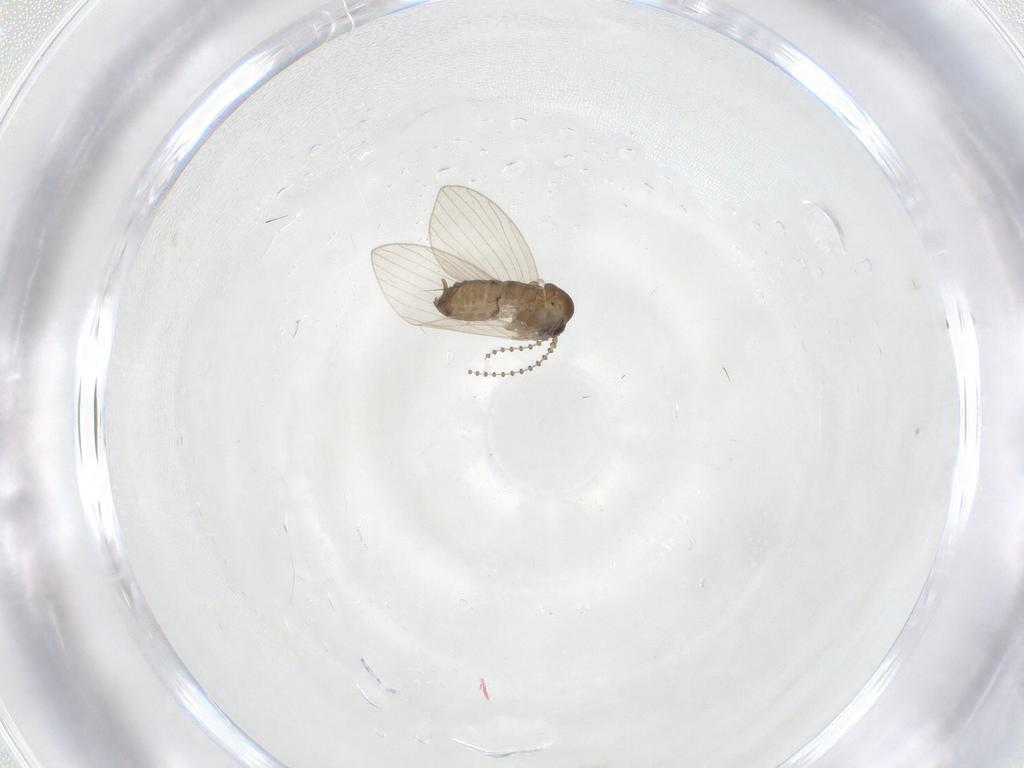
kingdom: Animalia
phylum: Arthropoda
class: Insecta
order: Diptera
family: Psychodidae
